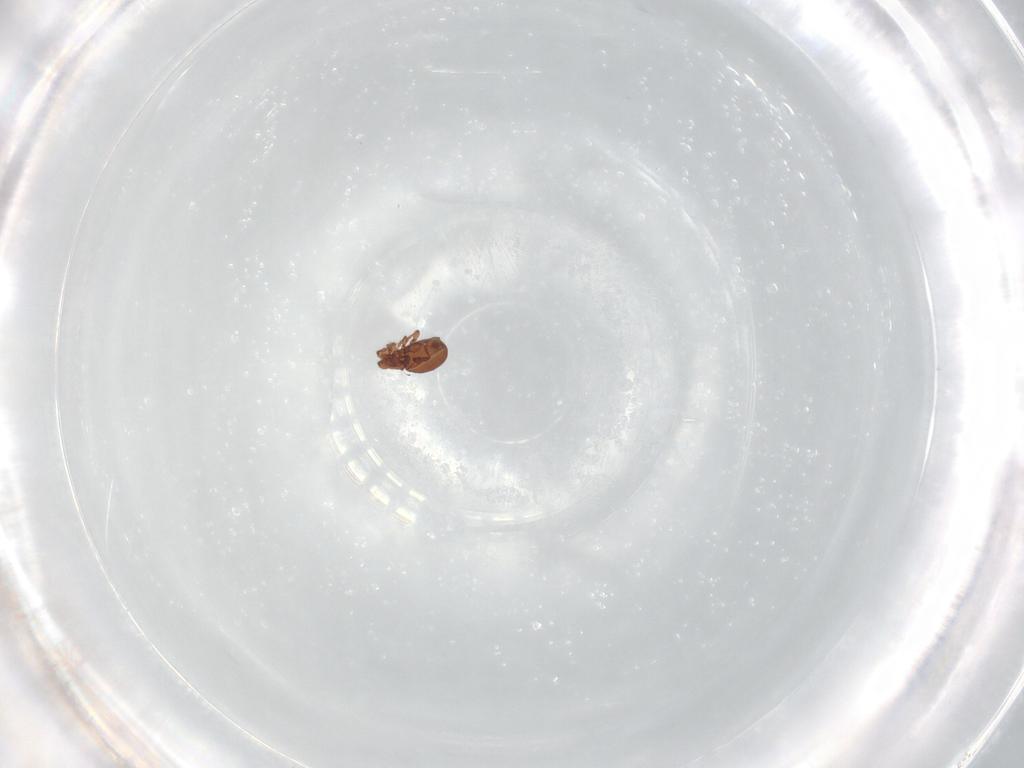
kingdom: Animalia
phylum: Arthropoda
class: Arachnida
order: Sarcoptiformes
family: Eremaeidae
